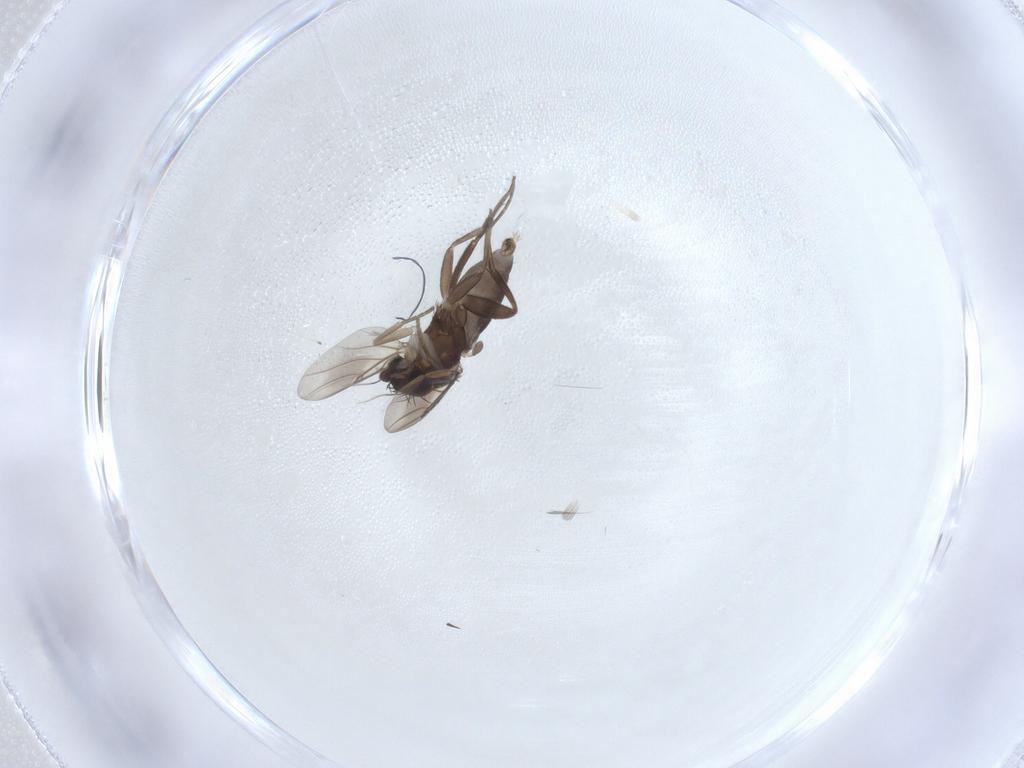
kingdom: Animalia
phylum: Arthropoda
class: Insecta
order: Diptera
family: Phoridae
